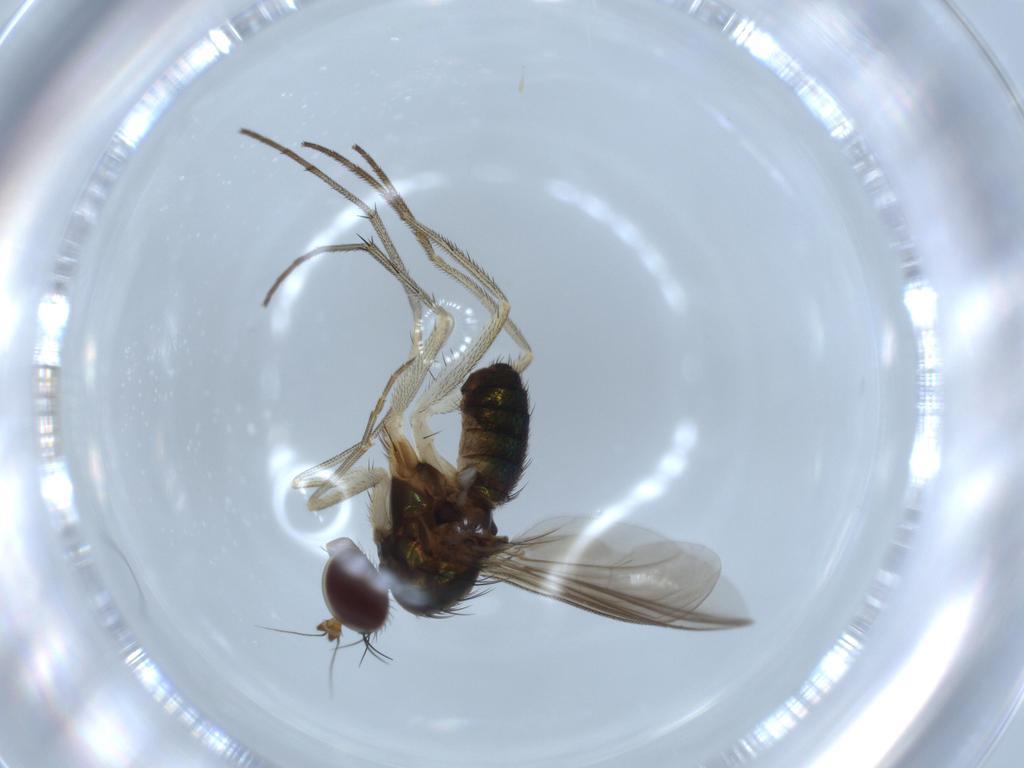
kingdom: Animalia
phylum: Arthropoda
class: Insecta
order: Diptera
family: Dolichopodidae
